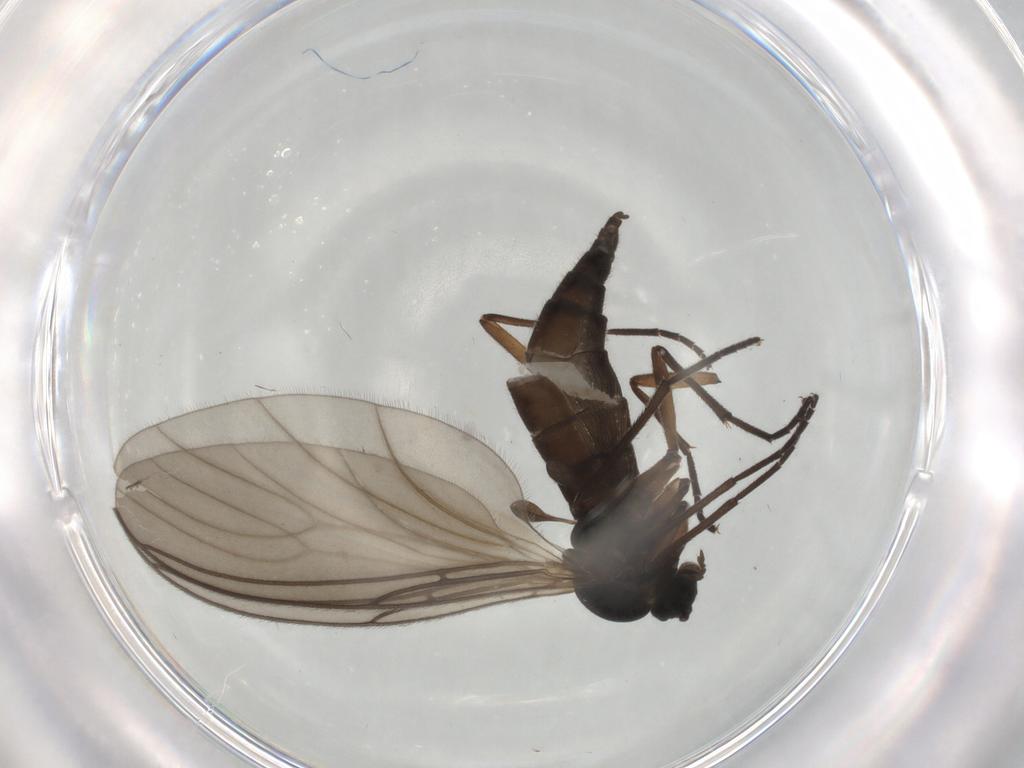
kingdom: Animalia
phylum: Arthropoda
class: Insecta
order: Diptera
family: Sciaridae
